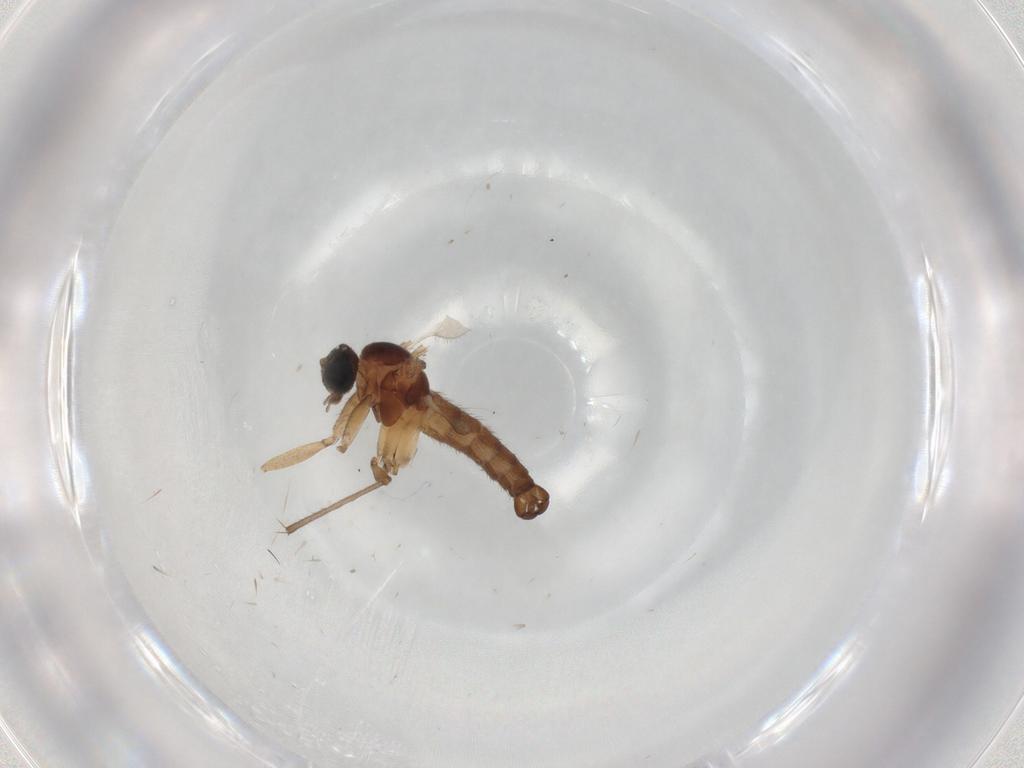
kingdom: Animalia
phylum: Arthropoda
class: Insecta
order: Diptera
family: Sciaridae
